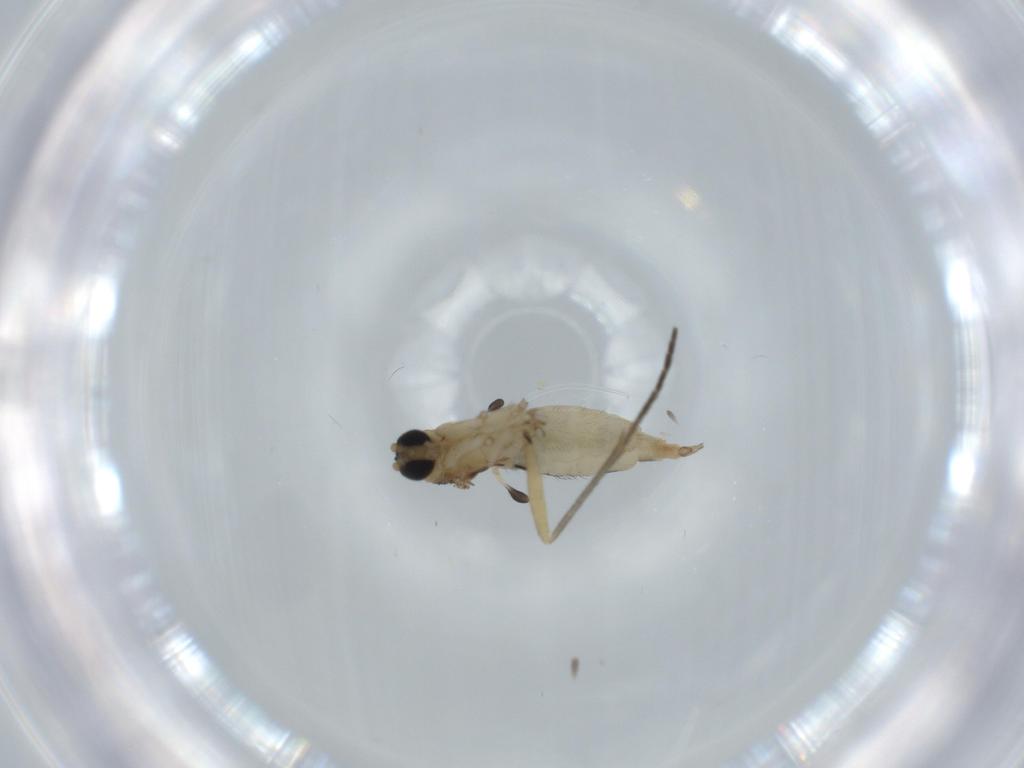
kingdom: Animalia
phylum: Arthropoda
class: Insecta
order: Diptera
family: Sciaridae
